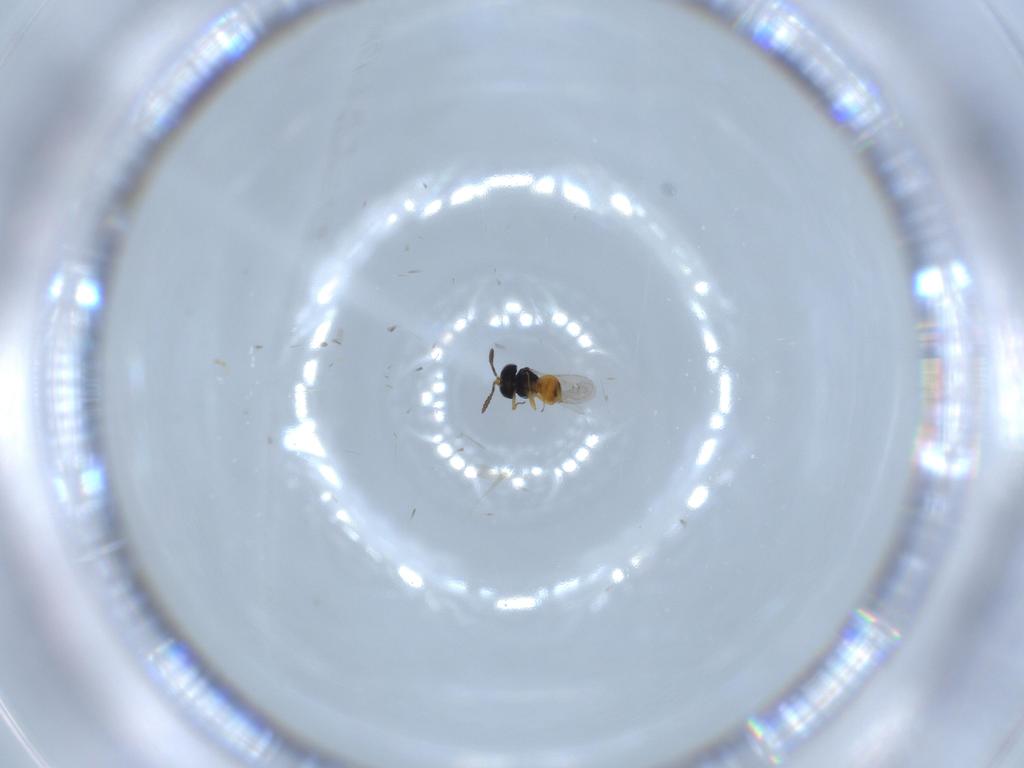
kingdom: Animalia
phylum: Arthropoda
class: Insecta
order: Hymenoptera
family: Scelionidae
